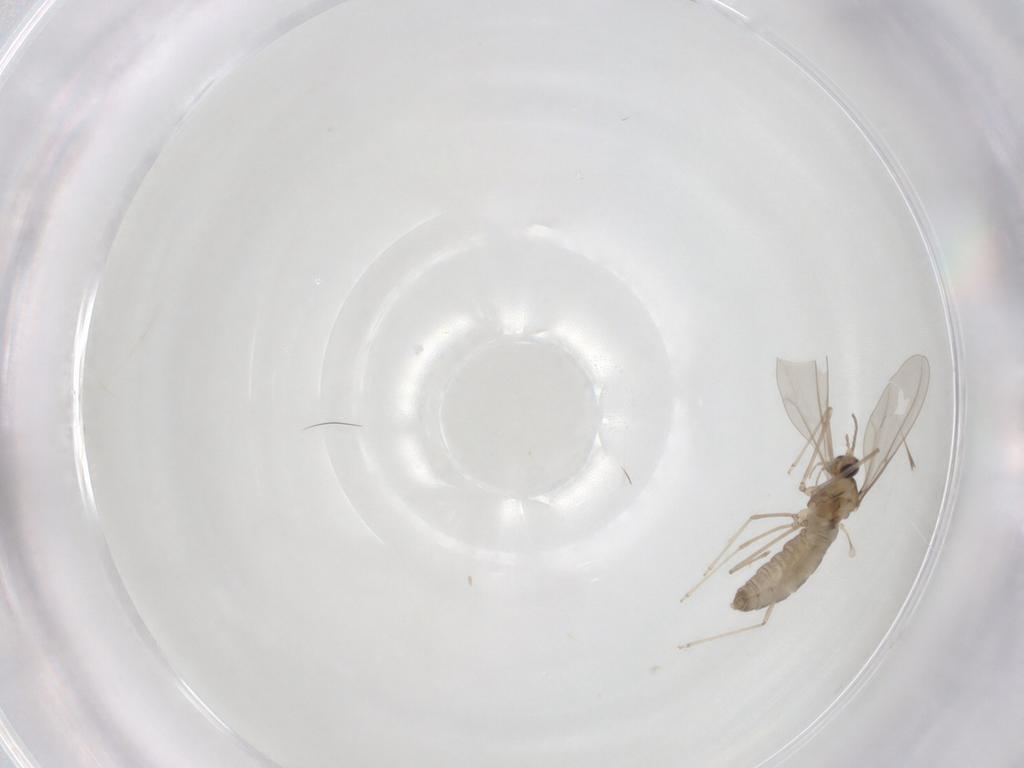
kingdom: Animalia
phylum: Arthropoda
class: Insecta
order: Diptera
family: Cecidomyiidae
